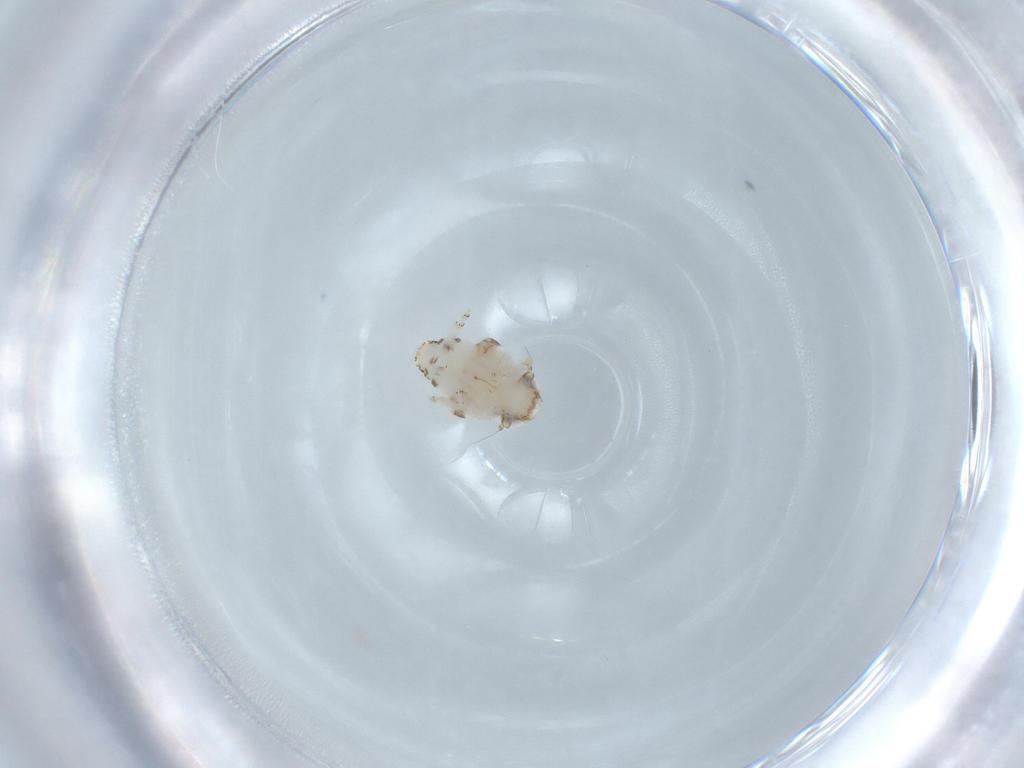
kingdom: Animalia
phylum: Arthropoda
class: Insecta
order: Hemiptera
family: Nogodinidae
